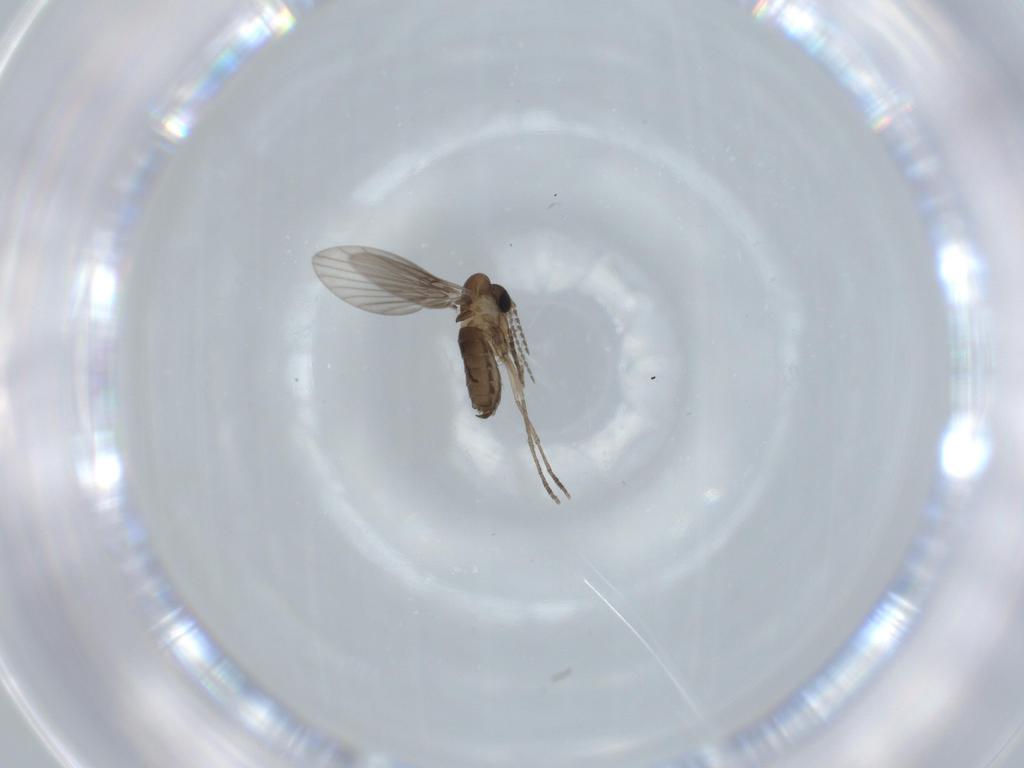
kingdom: Animalia
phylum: Arthropoda
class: Insecta
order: Diptera
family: Psychodidae
